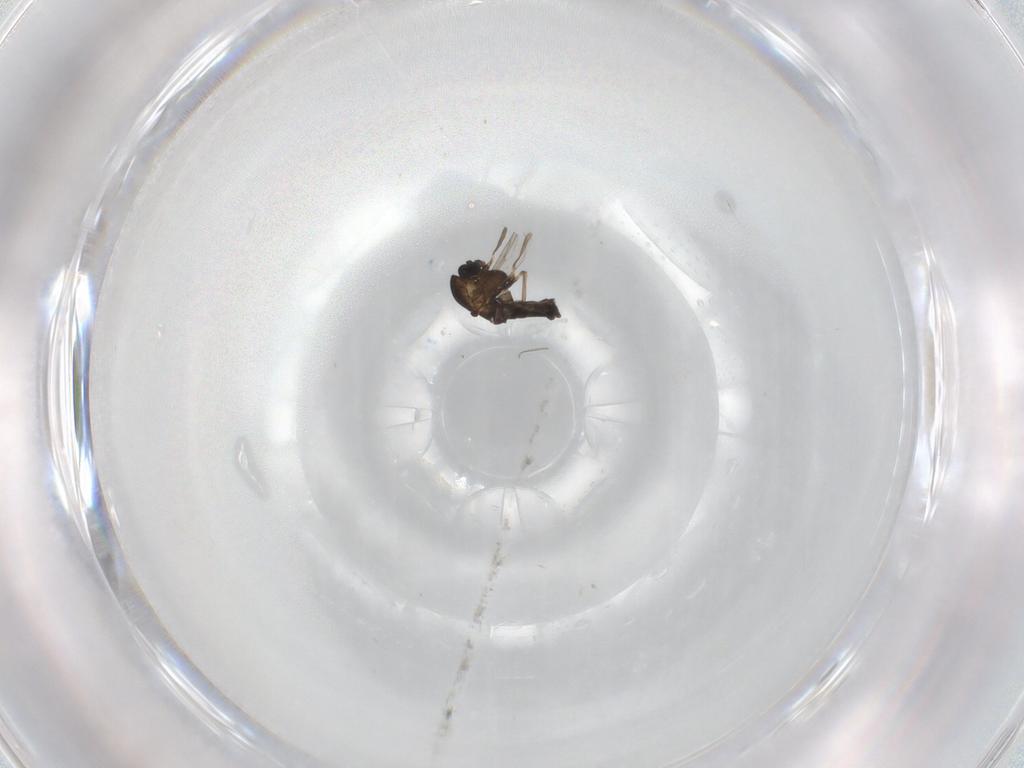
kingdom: Animalia
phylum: Arthropoda
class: Insecta
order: Diptera
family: Chironomidae
